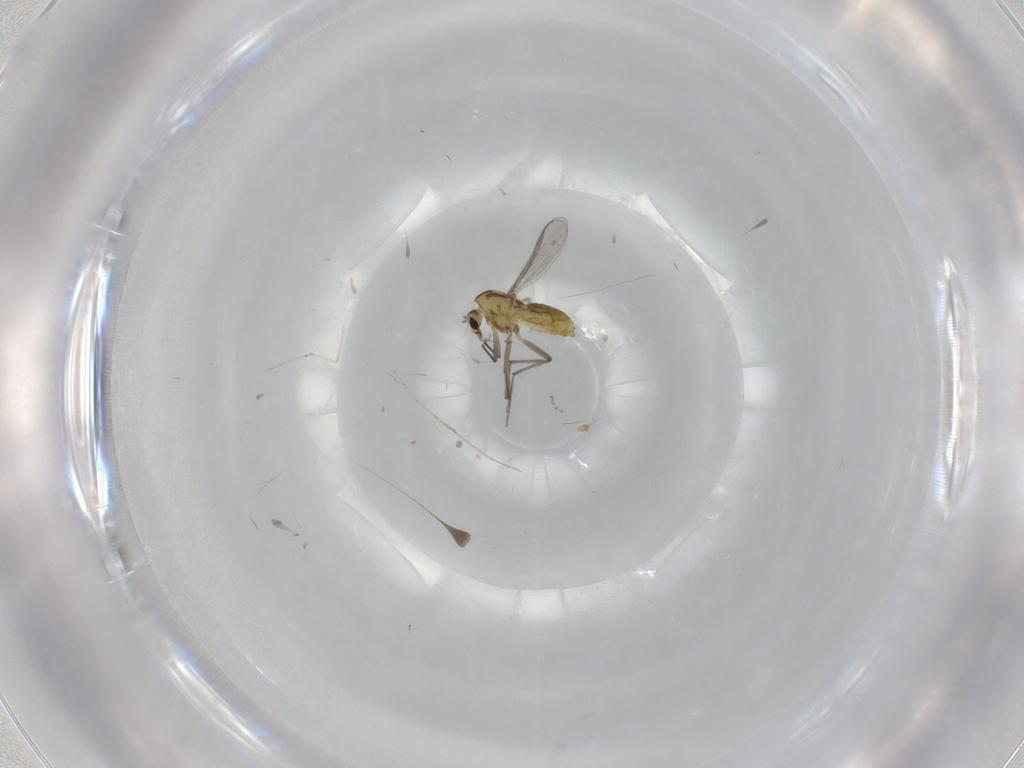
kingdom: Animalia
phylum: Arthropoda
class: Insecta
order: Diptera
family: Chironomidae
